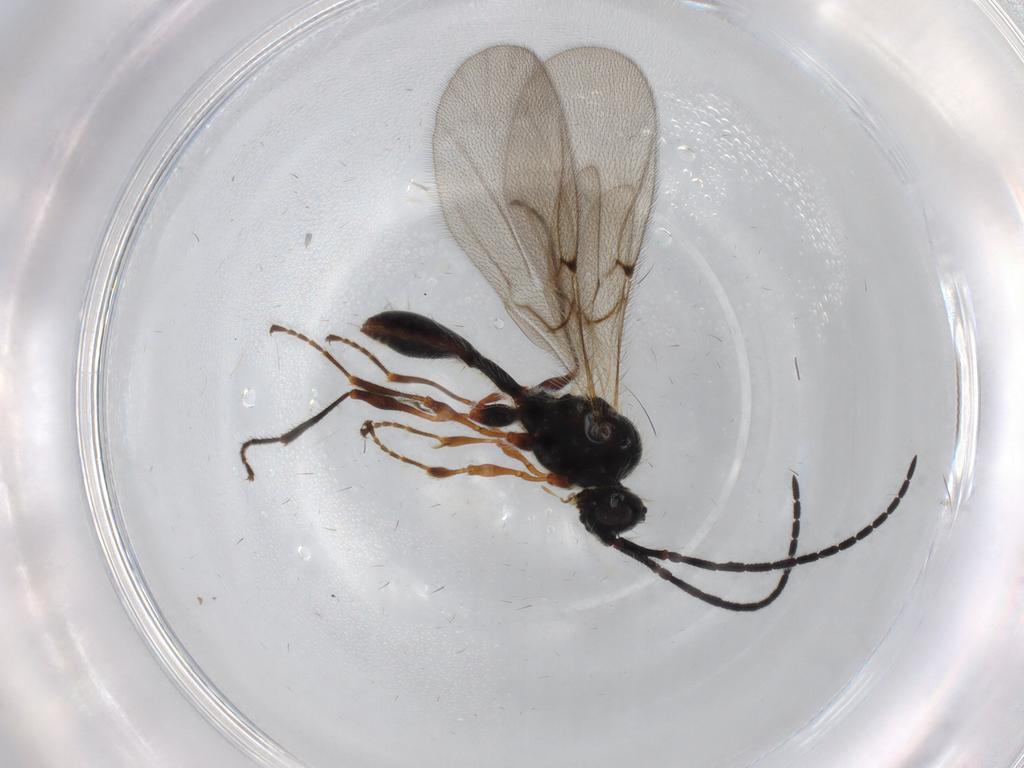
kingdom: Animalia
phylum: Arthropoda
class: Insecta
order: Hymenoptera
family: Diapriidae
